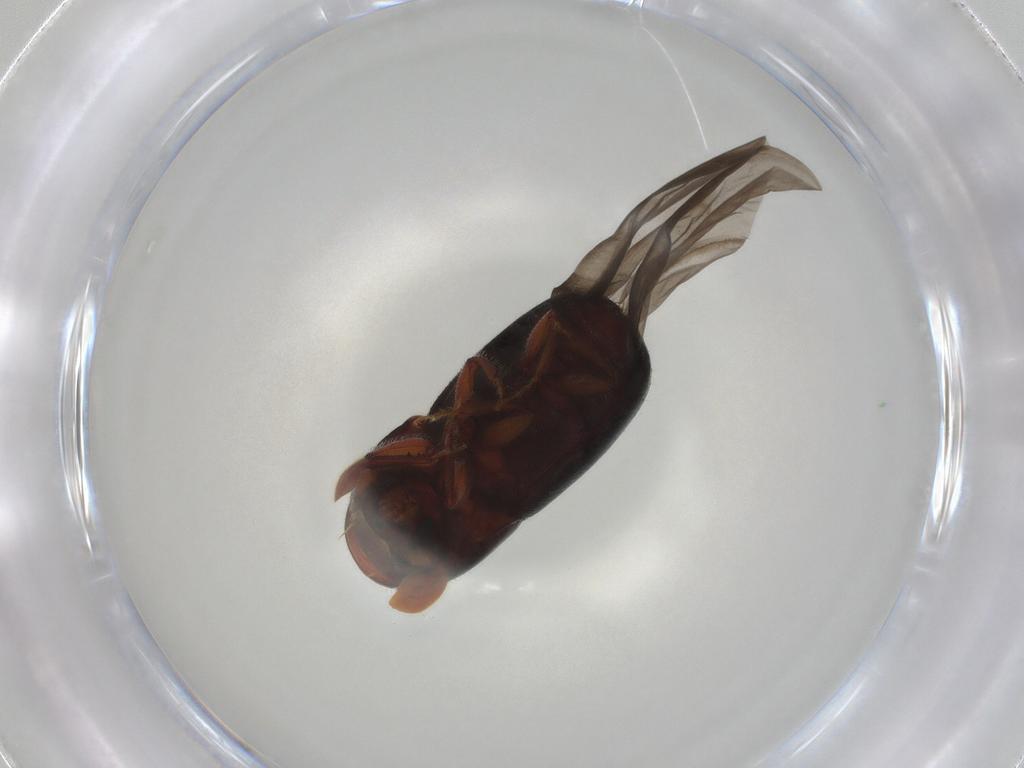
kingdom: Animalia
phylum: Arthropoda
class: Insecta
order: Coleoptera
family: Curculionidae
